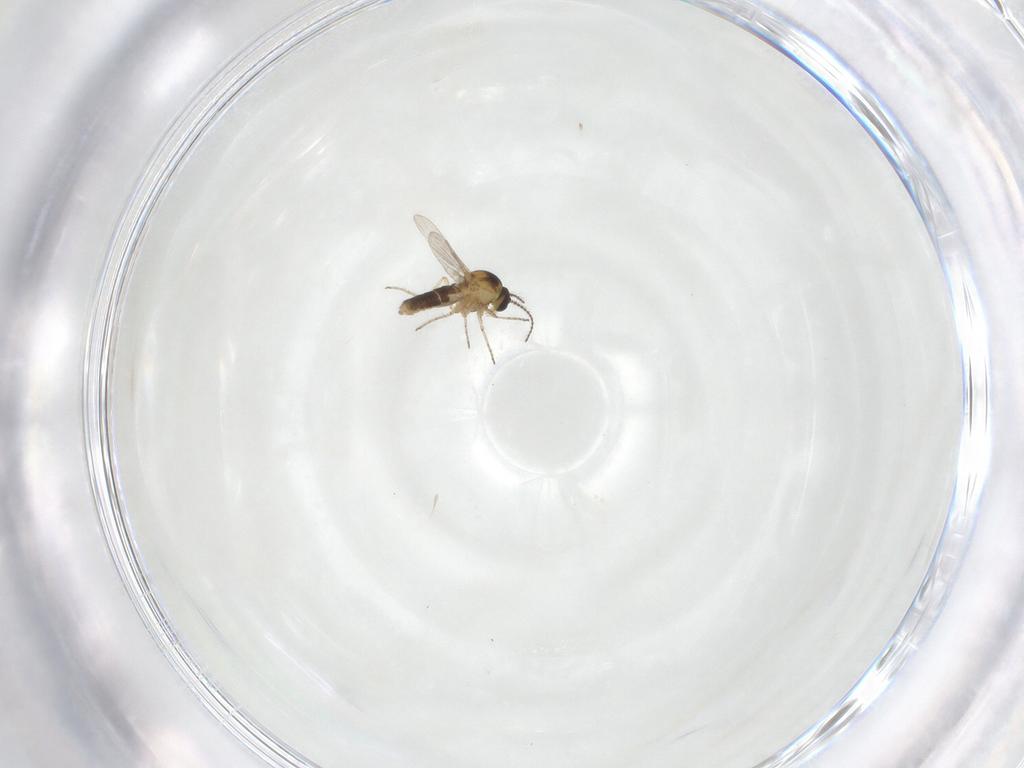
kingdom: Animalia
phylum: Arthropoda
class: Insecta
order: Diptera
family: Ceratopogonidae
